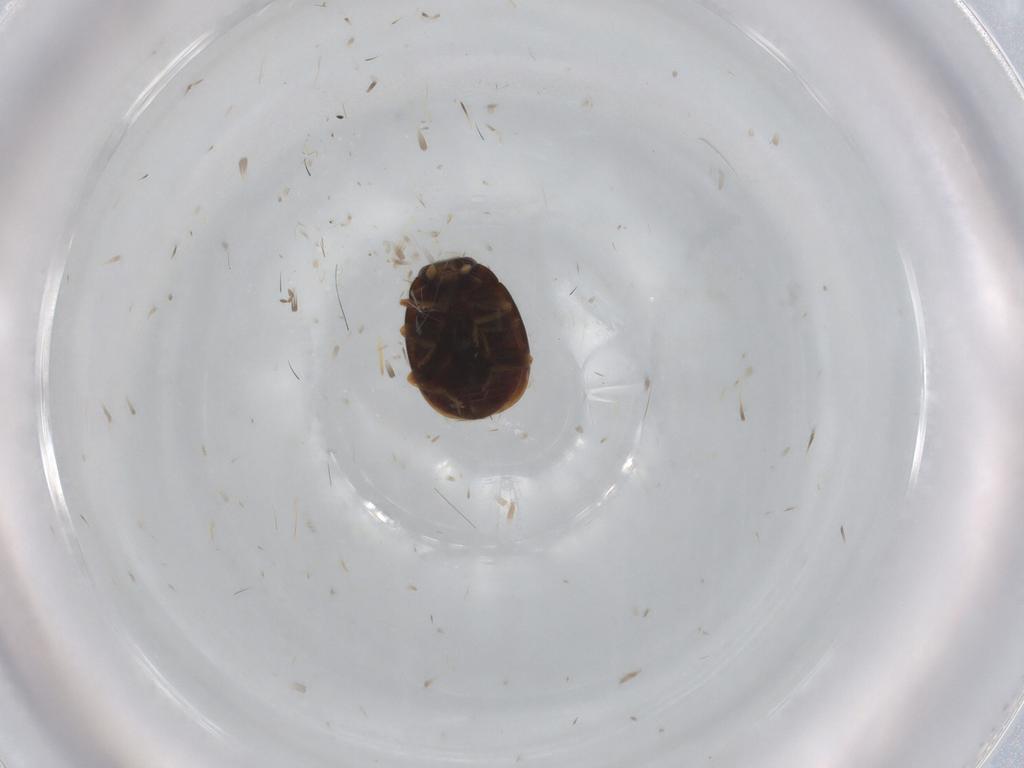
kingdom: Animalia
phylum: Arthropoda
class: Insecta
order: Coleoptera
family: Coccinellidae
